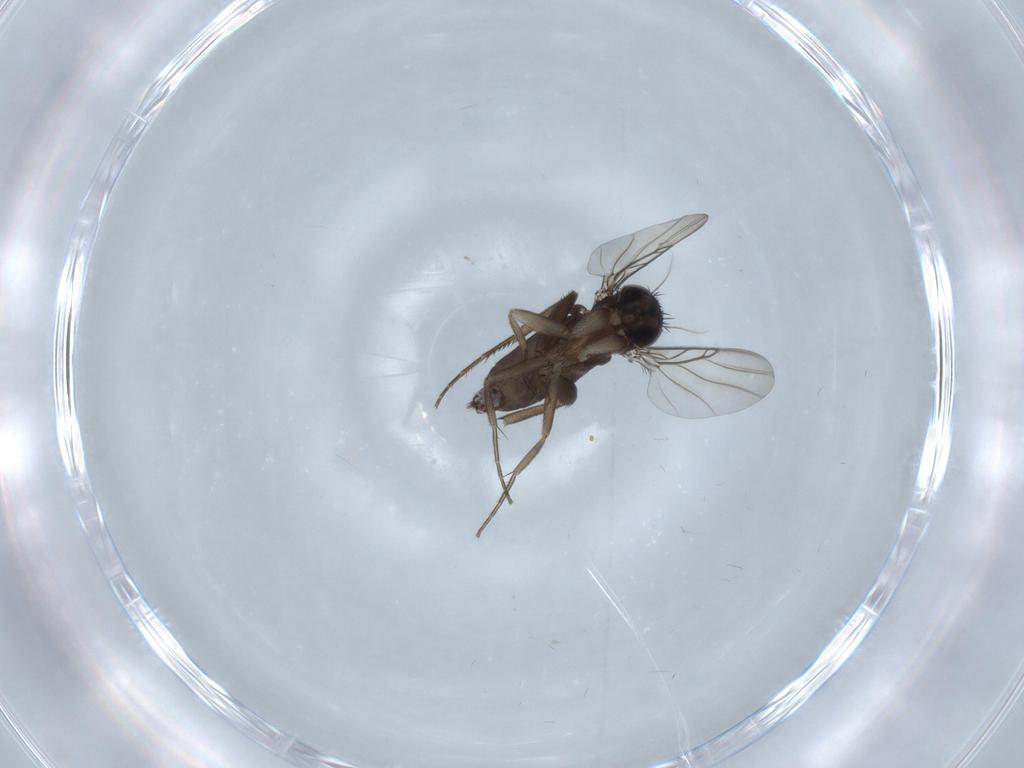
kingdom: Animalia
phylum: Arthropoda
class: Insecta
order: Diptera
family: Phoridae
